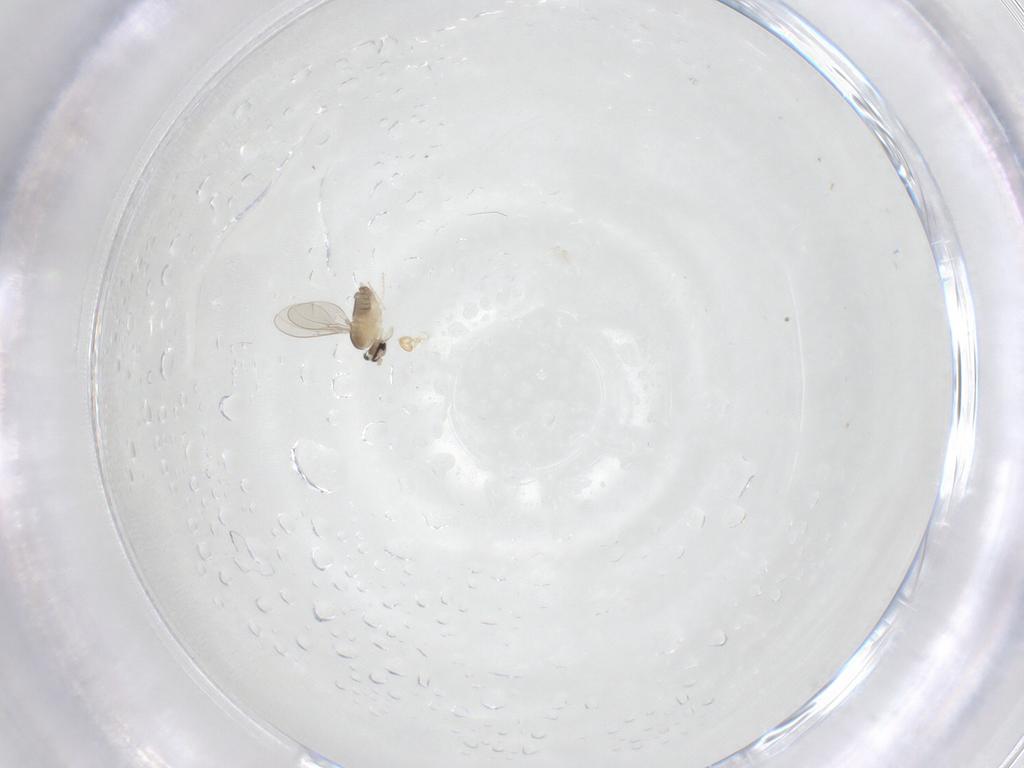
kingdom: Animalia
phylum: Arthropoda
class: Insecta
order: Diptera
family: Cecidomyiidae
